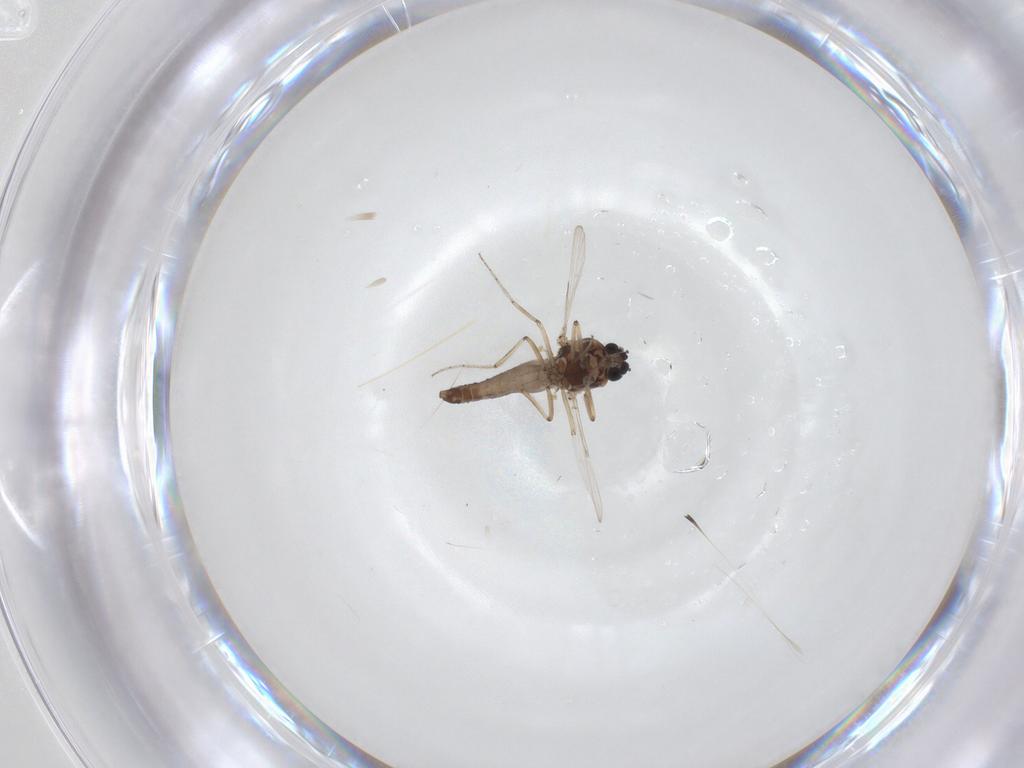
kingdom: Animalia
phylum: Arthropoda
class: Insecta
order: Diptera
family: Ceratopogonidae
